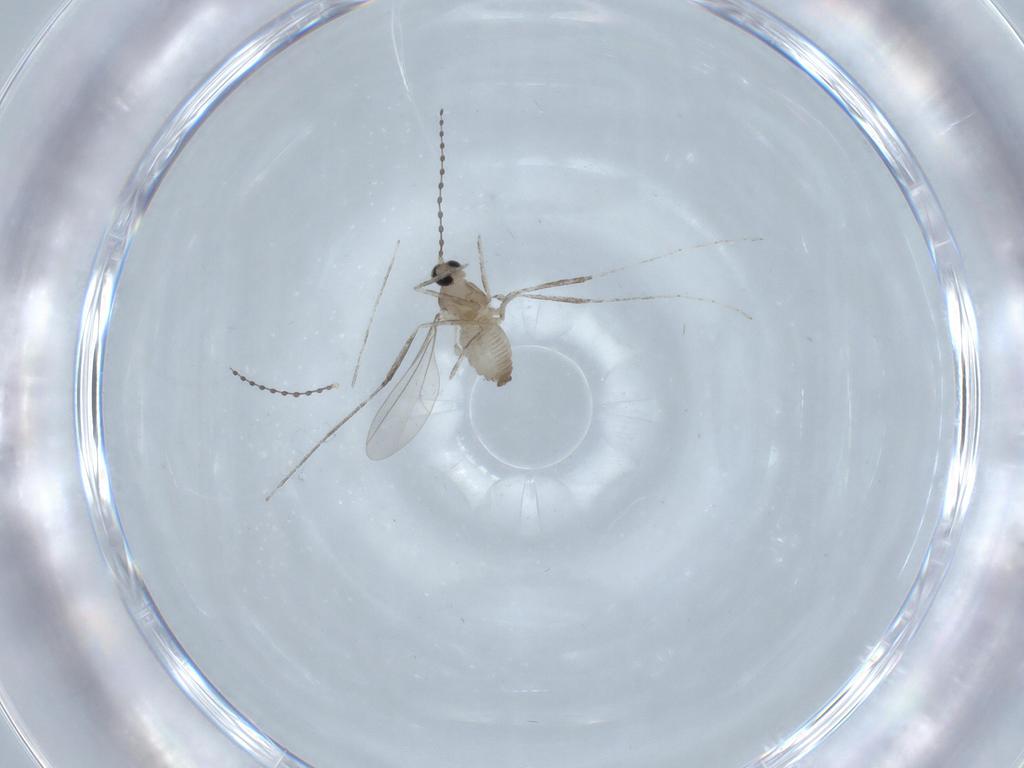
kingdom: Animalia
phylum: Arthropoda
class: Insecta
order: Diptera
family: Cecidomyiidae
